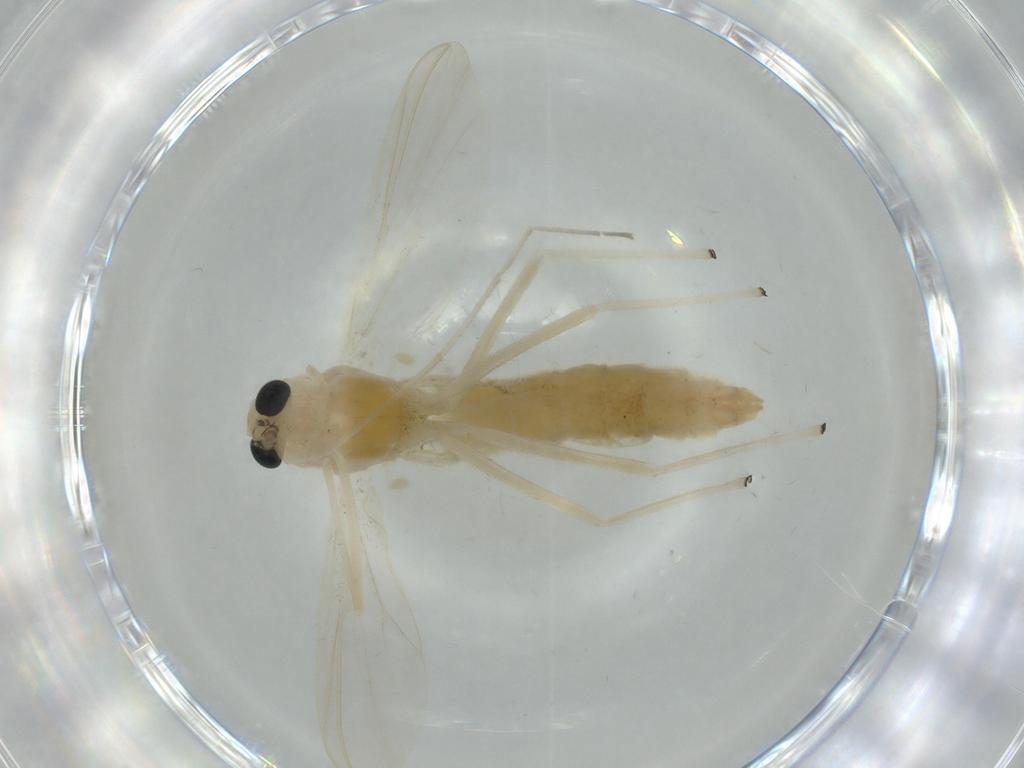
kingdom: Animalia
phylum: Arthropoda
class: Insecta
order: Diptera
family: Chironomidae
